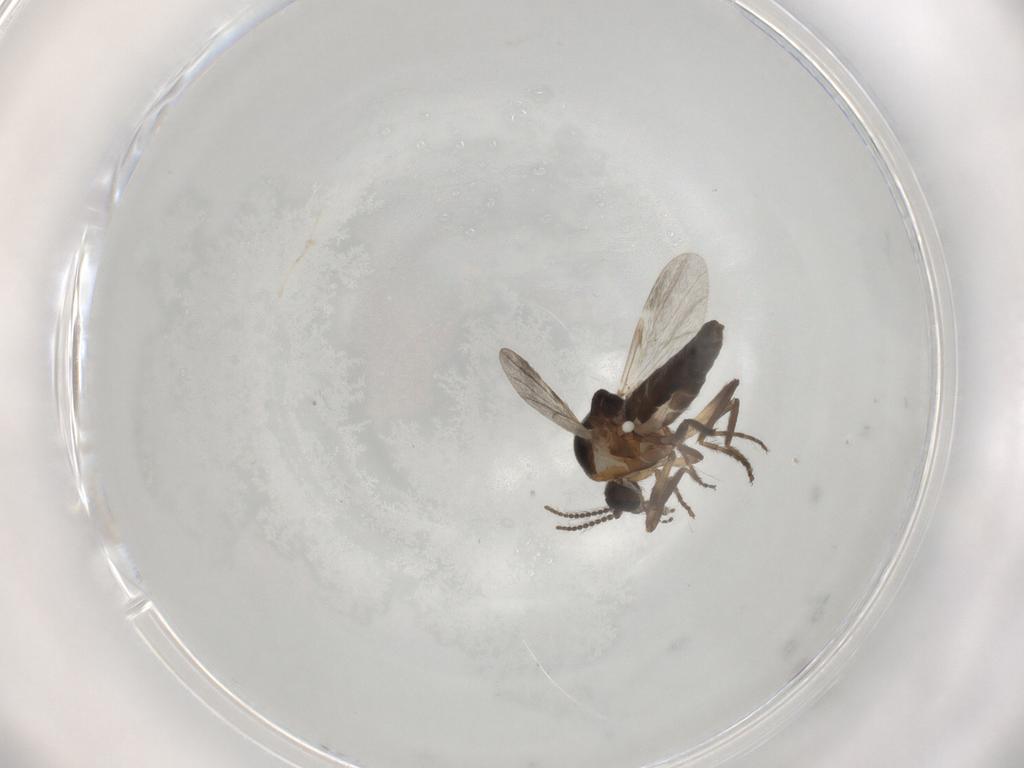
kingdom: Animalia
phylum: Arthropoda
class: Insecta
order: Diptera
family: Ceratopogonidae
